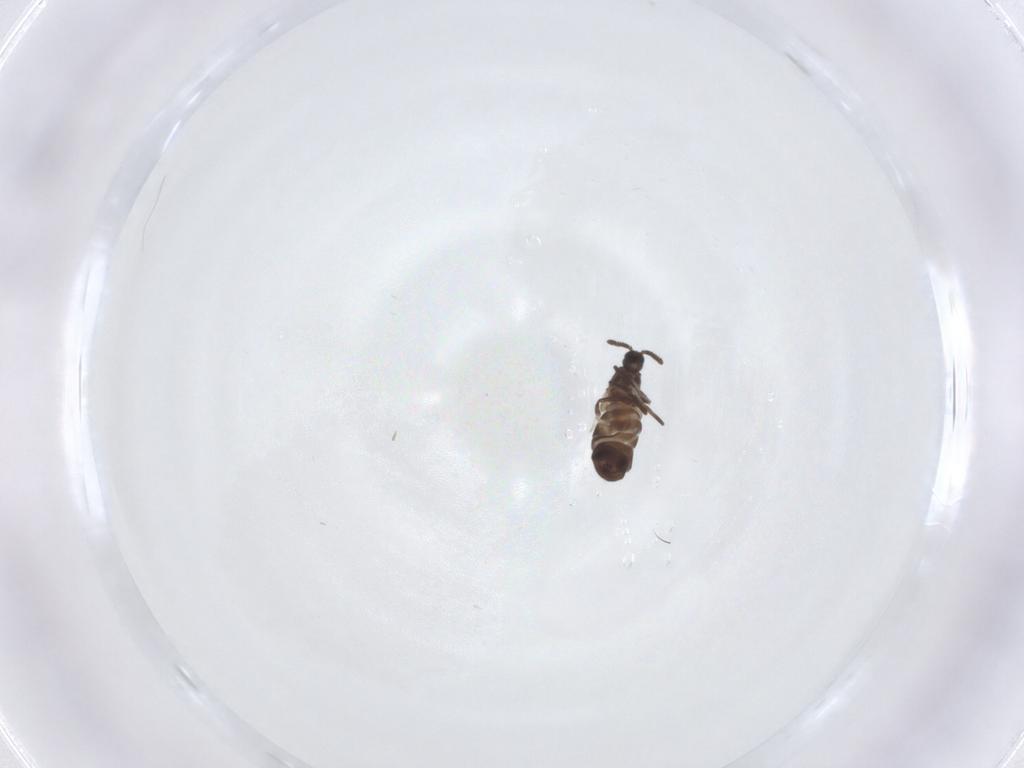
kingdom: Animalia
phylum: Arthropoda
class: Insecta
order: Diptera
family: Scatopsidae
